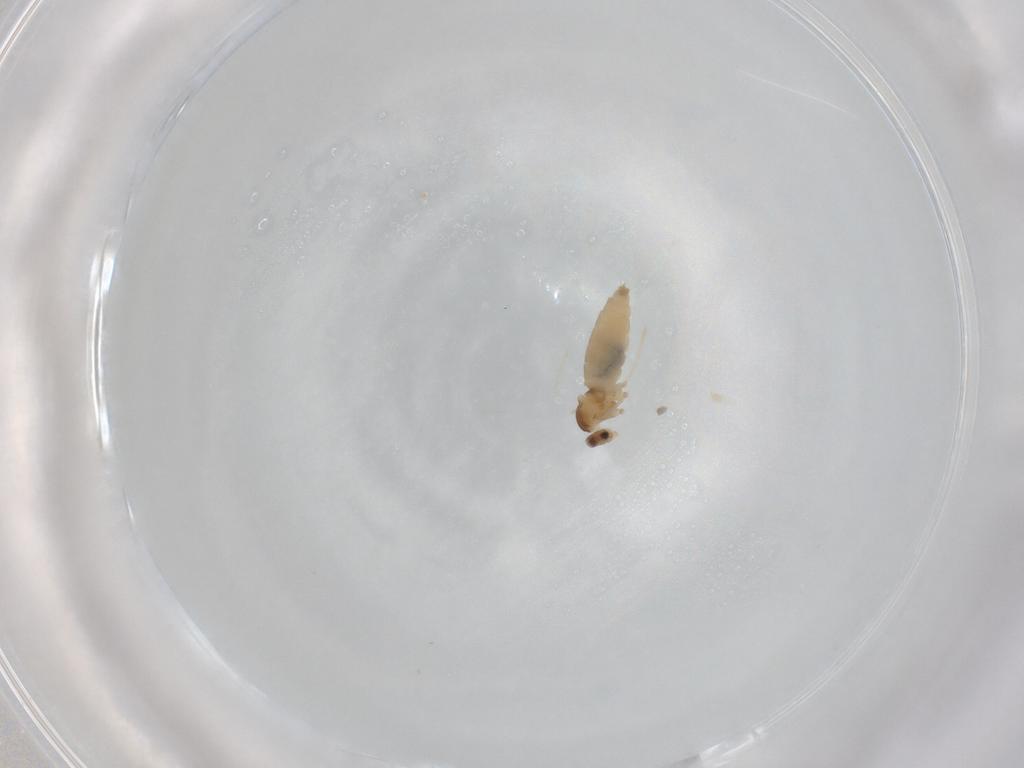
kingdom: Animalia
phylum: Arthropoda
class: Insecta
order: Diptera
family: Cecidomyiidae
